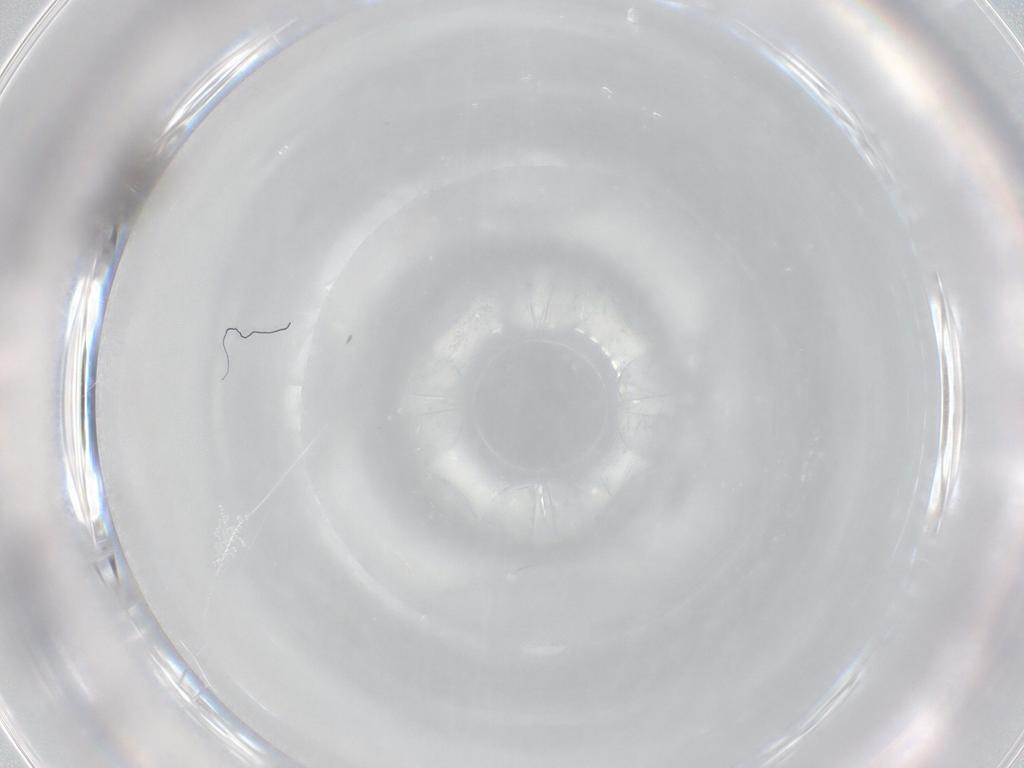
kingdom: Animalia
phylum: Arthropoda
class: Insecta
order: Hymenoptera
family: Ceraphronidae
